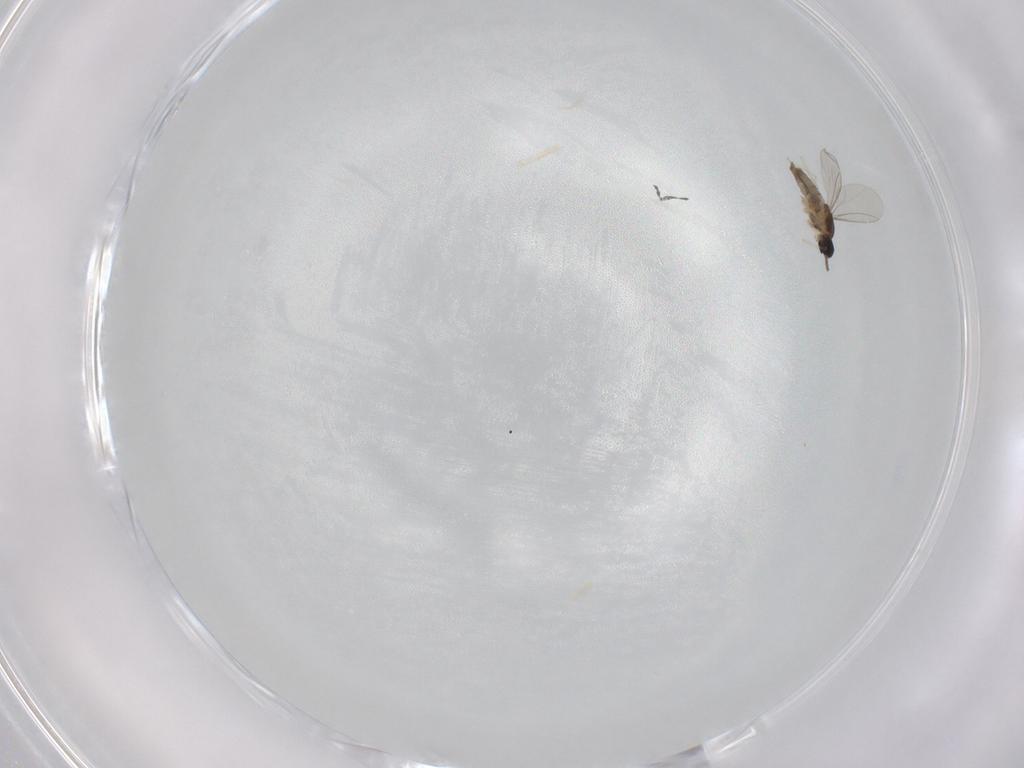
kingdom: Animalia
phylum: Arthropoda
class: Insecta
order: Diptera
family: Cecidomyiidae
